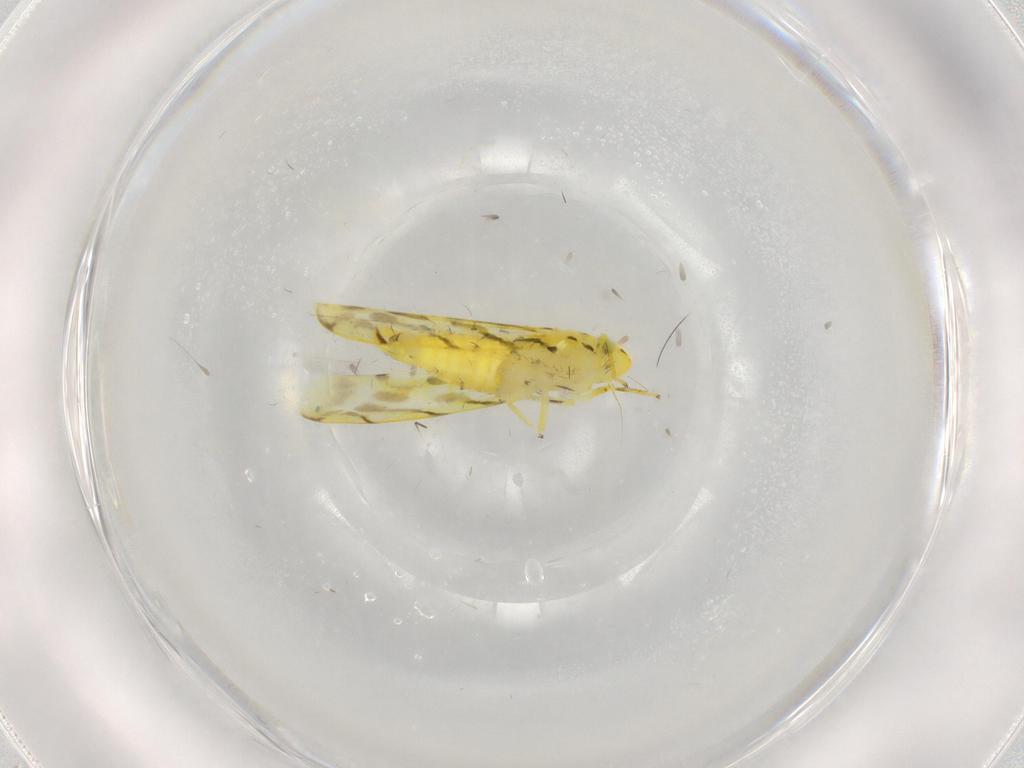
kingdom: Animalia
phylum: Arthropoda
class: Insecta
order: Hemiptera
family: Cicadellidae
